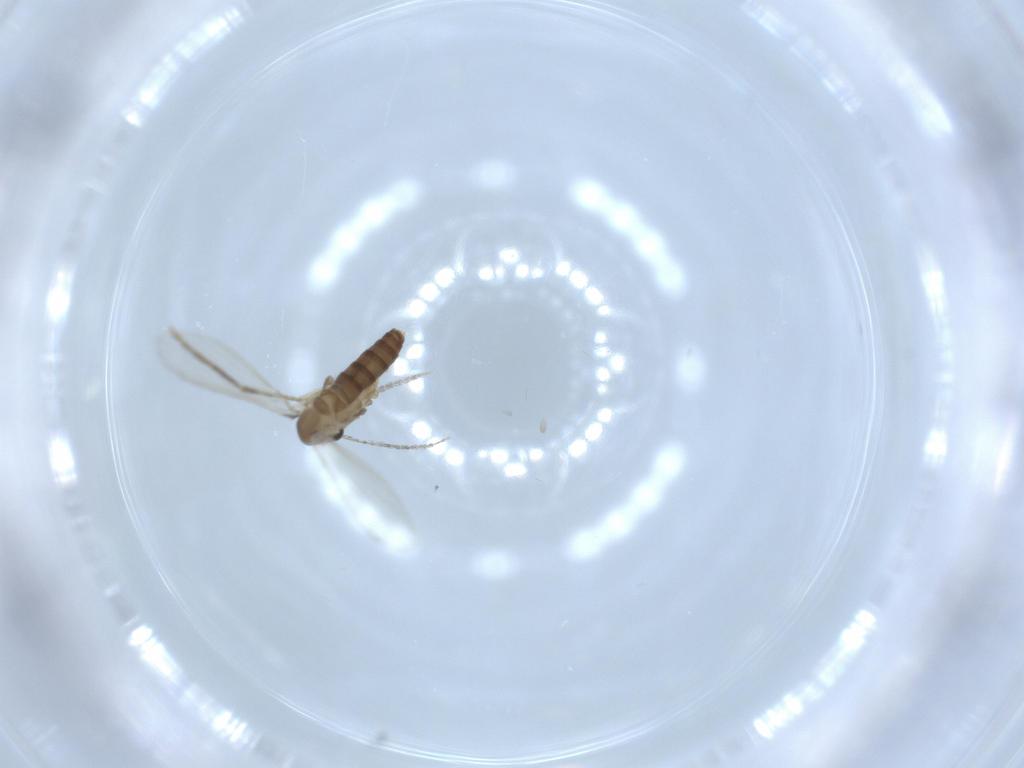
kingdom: Animalia
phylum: Arthropoda
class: Insecta
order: Diptera
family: Psychodidae
